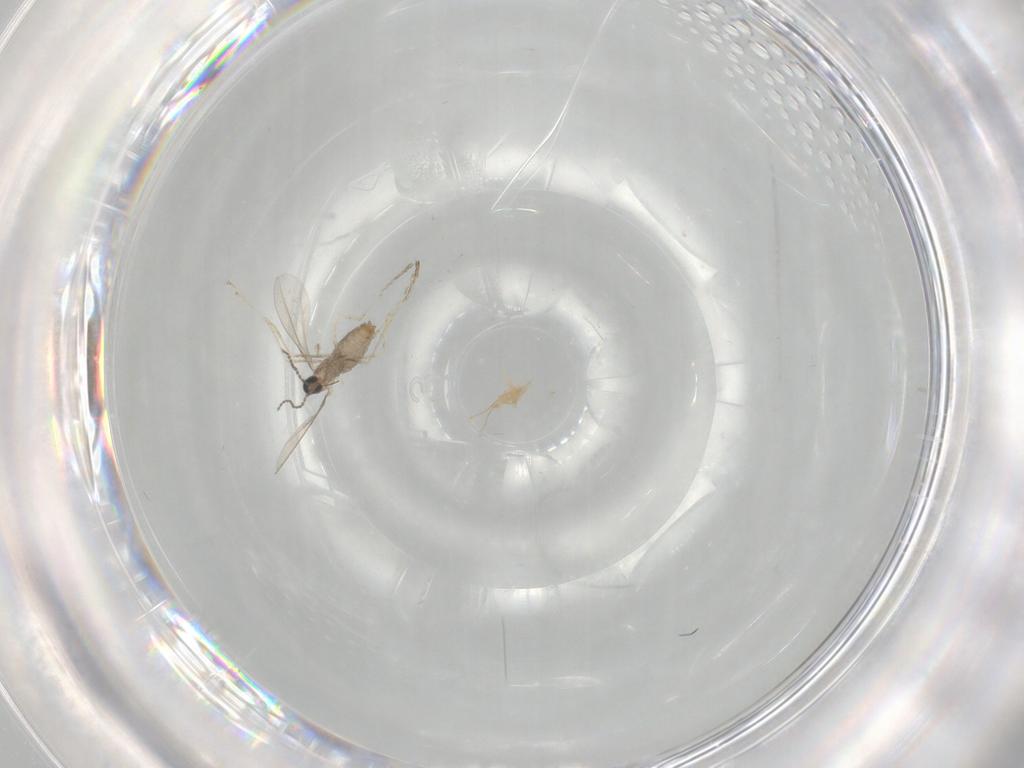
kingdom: Animalia
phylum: Arthropoda
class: Insecta
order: Diptera
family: Cecidomyiidae
